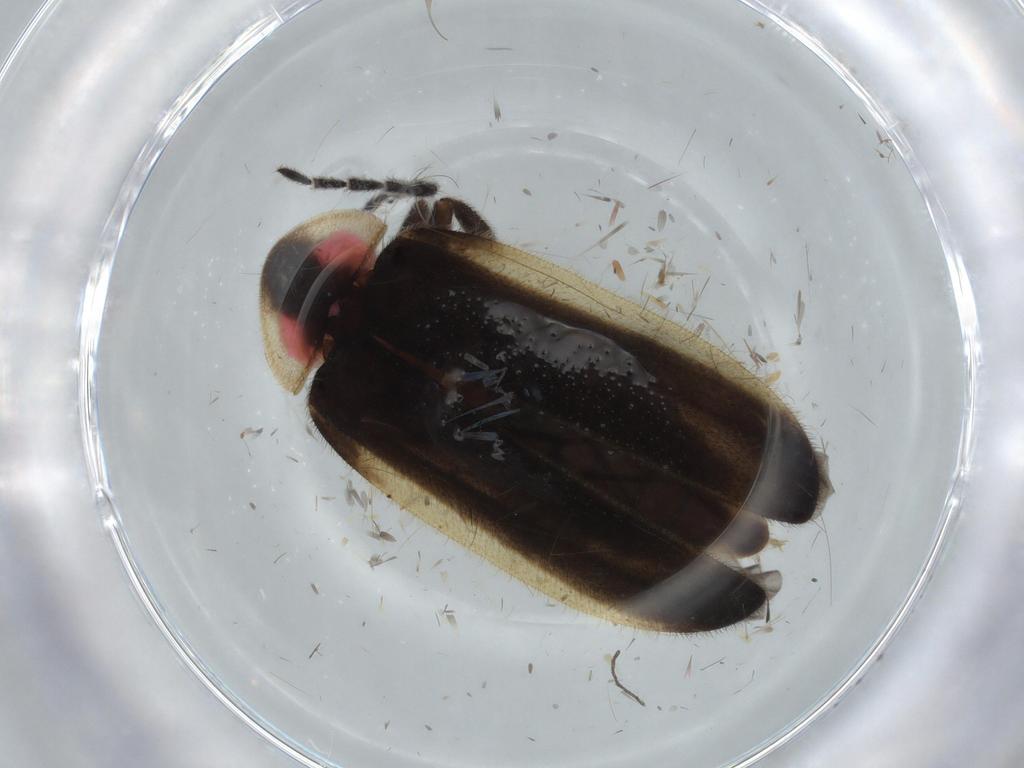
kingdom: Animalia
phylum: Arthropoda
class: Insecta
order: Coleoptera
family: Lampyridae
